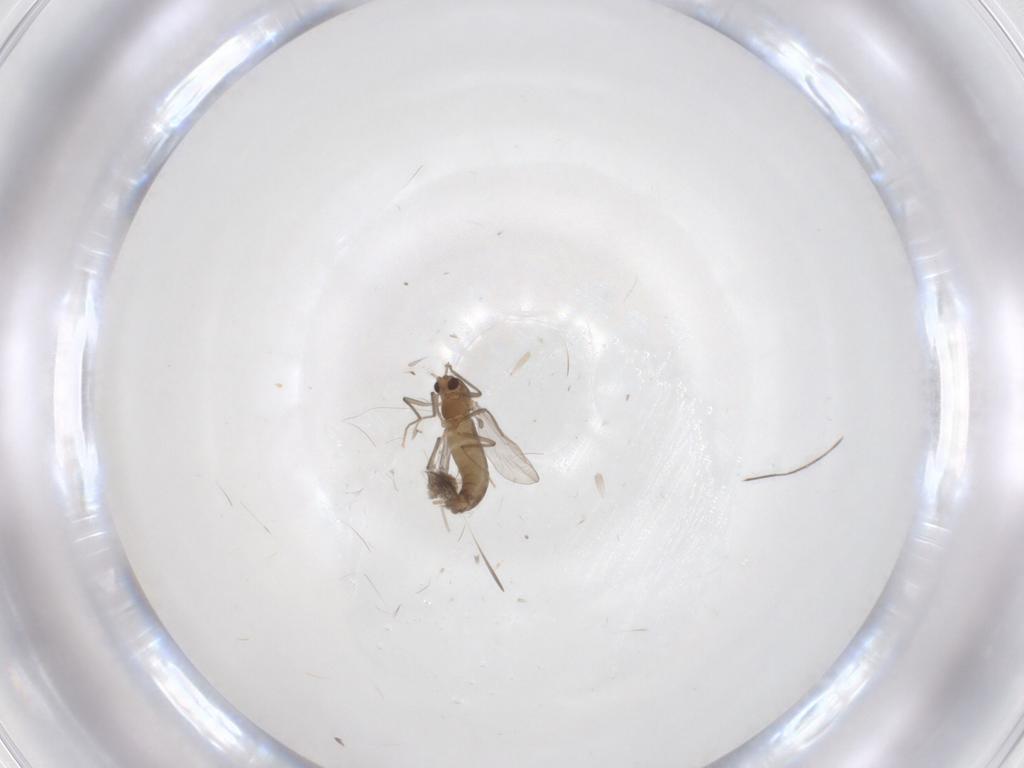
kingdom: Animalia
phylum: Arthropoda
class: Insecta
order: Diptera
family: Chironomidae
